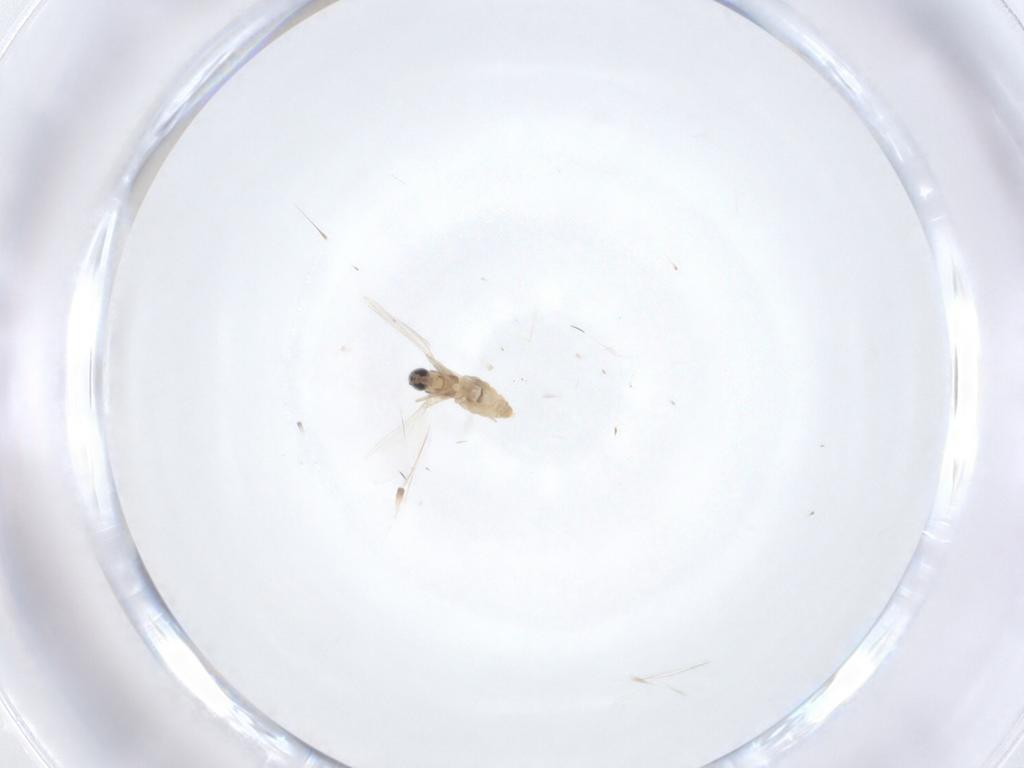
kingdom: Animalia
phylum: Arthropoda
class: Insecta
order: Diptera
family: Cecidomyiidae
